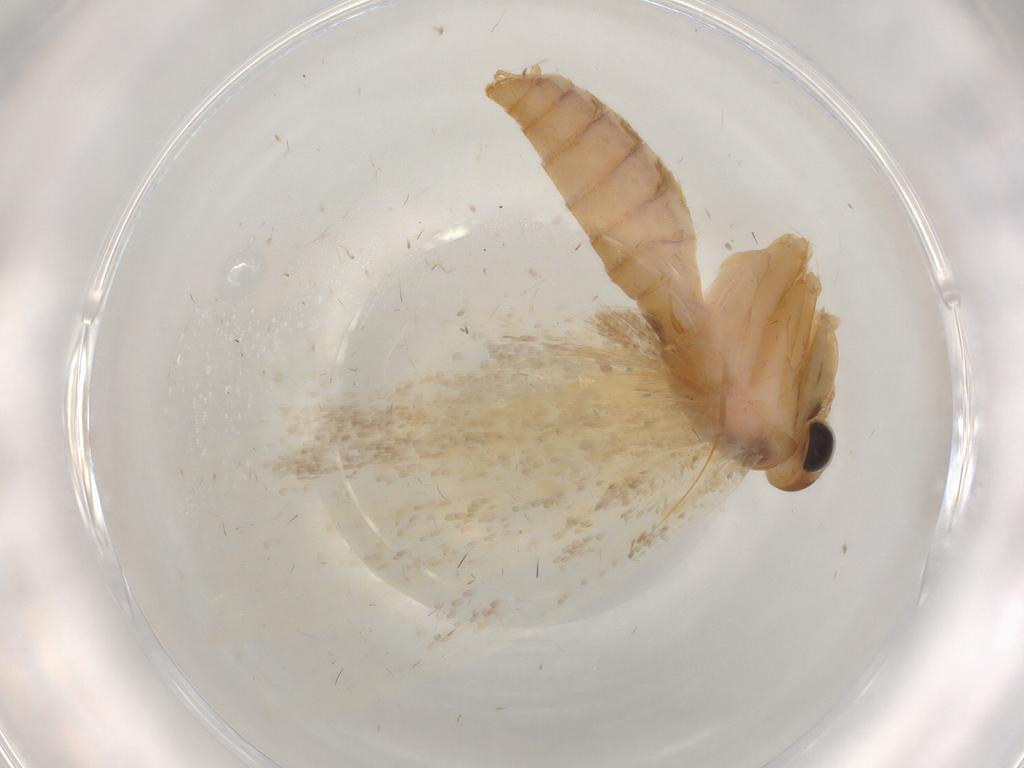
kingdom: Animalia
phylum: Arthropoda
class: Insecta
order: Lepidoptera
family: Oecophoridae
